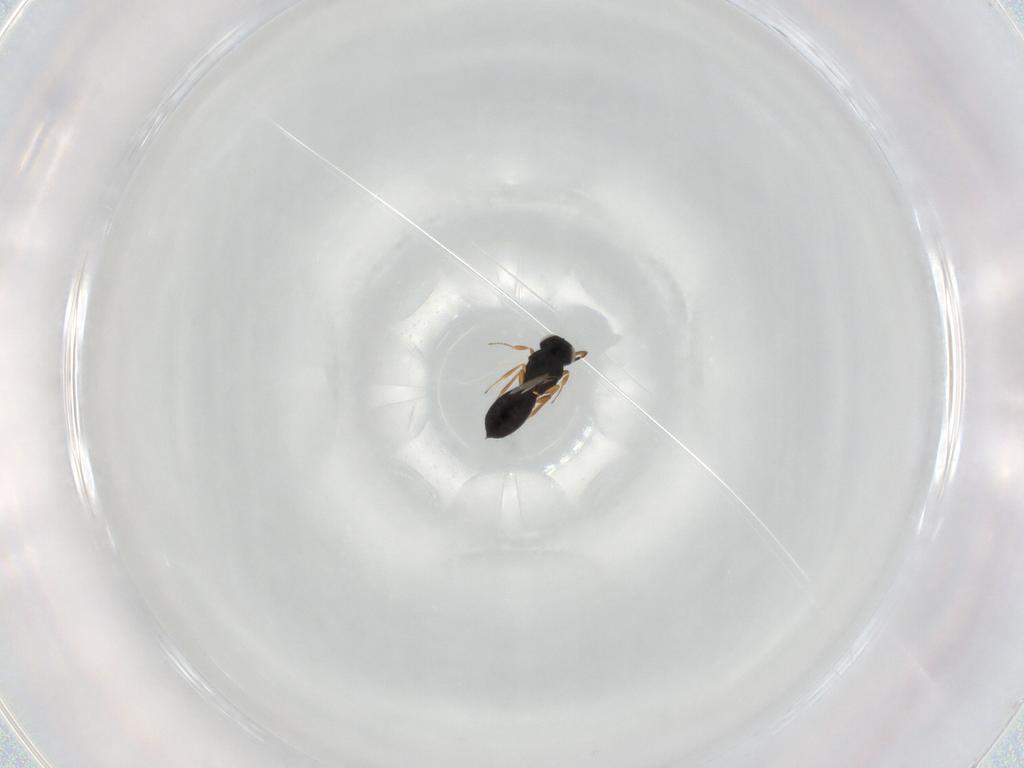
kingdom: Animalia
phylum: Arthropoda
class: Insecta
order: Hymenoptera
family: Scelionidae
